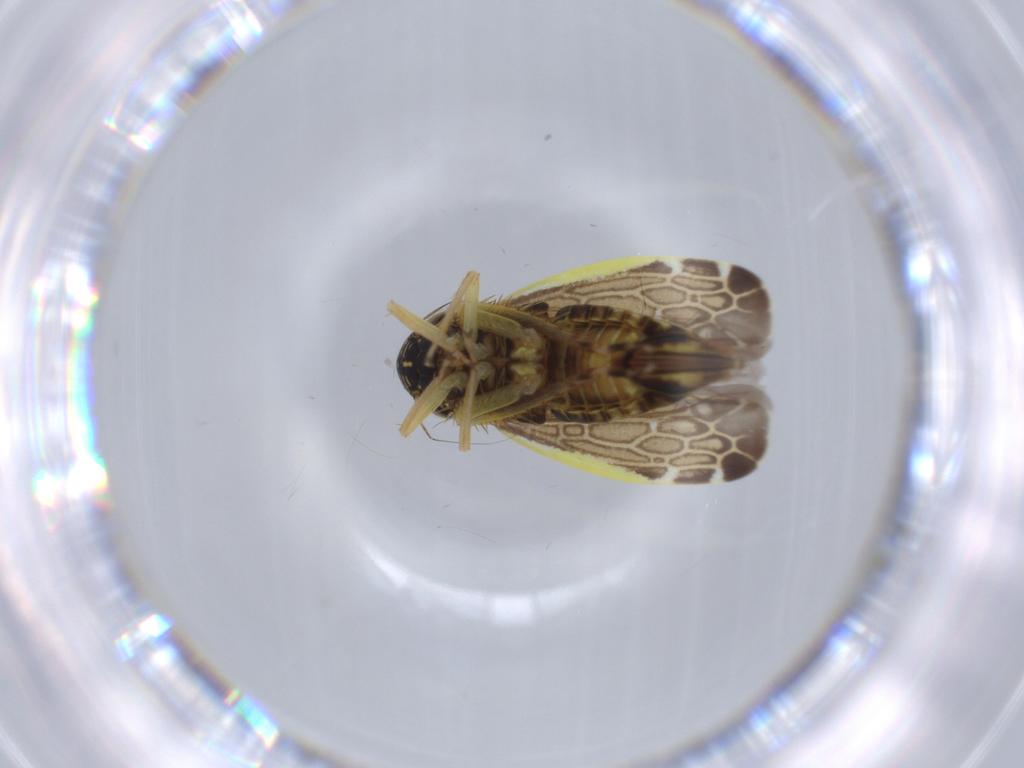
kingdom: Animalia
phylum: Arthropoda
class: Insecta
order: Hemiptera
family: Cicadellidae
